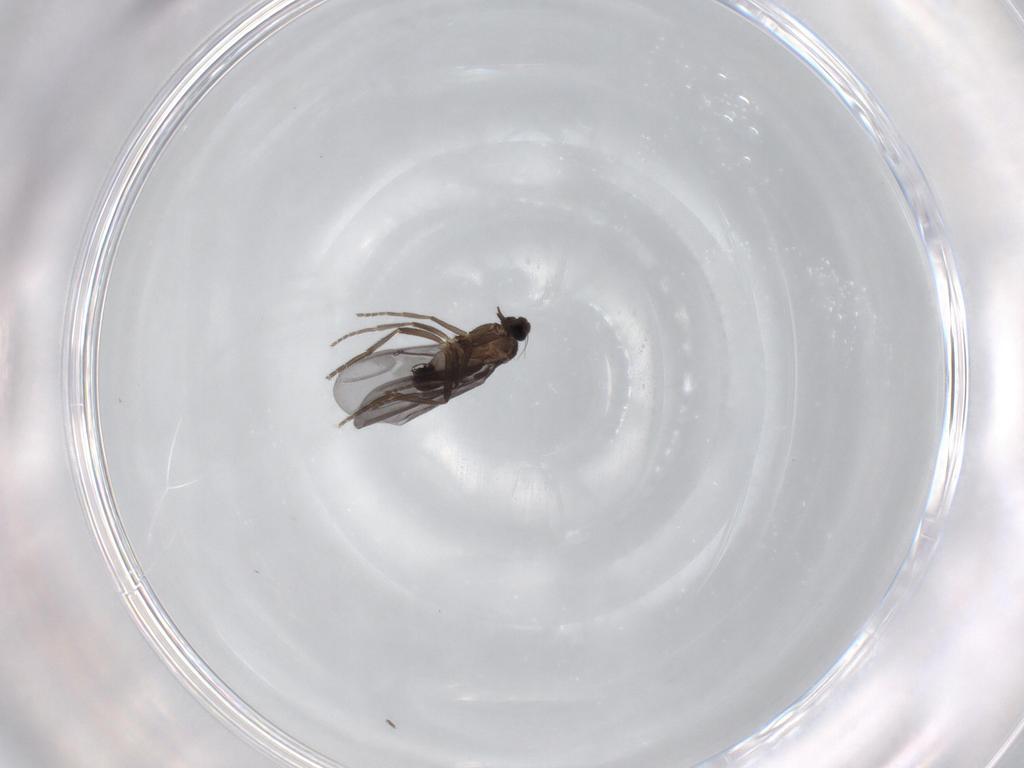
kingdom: Animalia
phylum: Arthropoda
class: Insecta
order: Diptera
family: Phoridae
